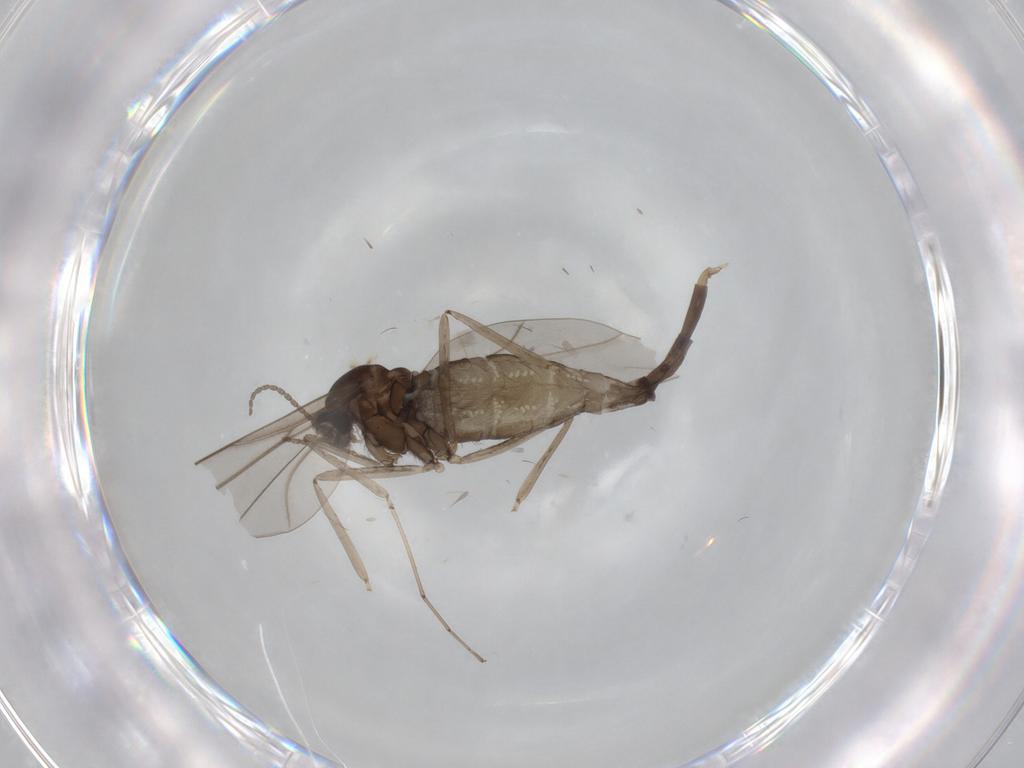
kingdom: Animalia
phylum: Arthropoda
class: Insecta
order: Diptera
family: Cecidomyiidae
